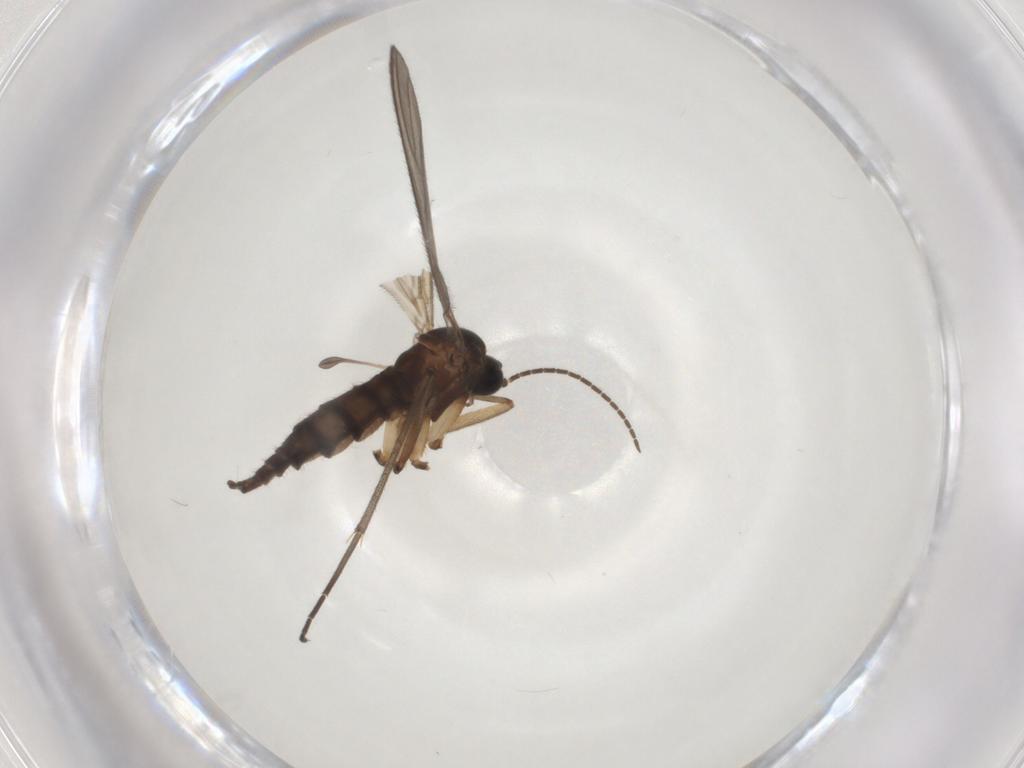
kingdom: Animalia
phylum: Arthropoda
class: Insecta
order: Diptera
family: Sciaridae
